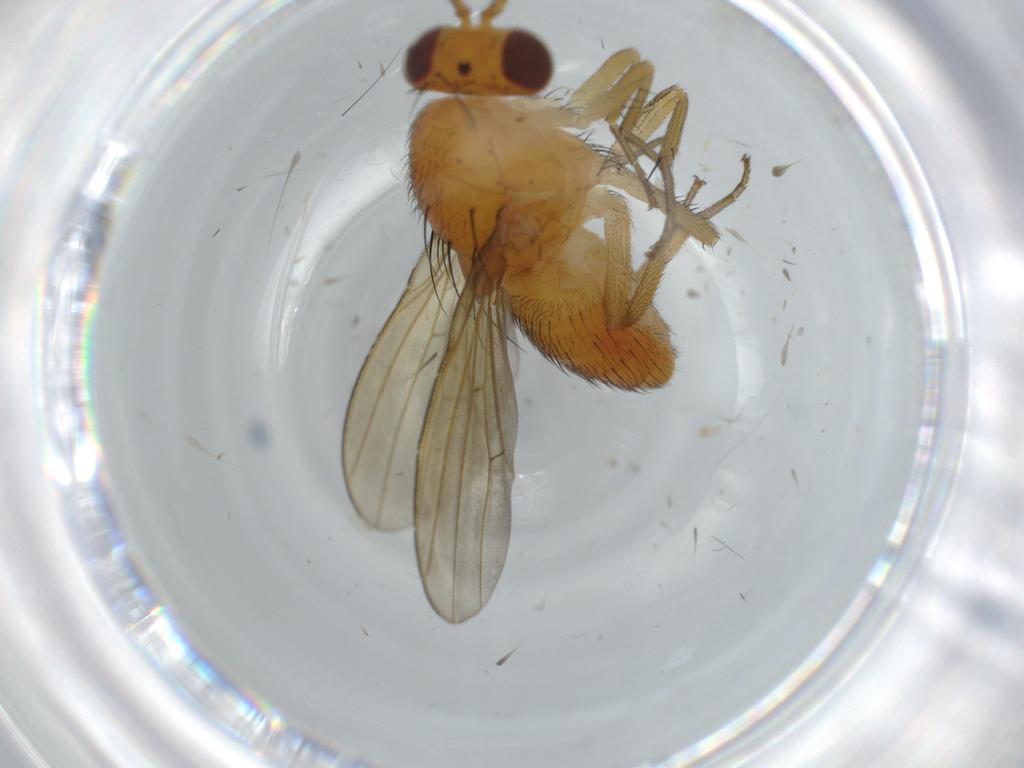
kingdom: Animalia
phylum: Arthropoda
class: Insecta
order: Diptera
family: Lauxaniidae
